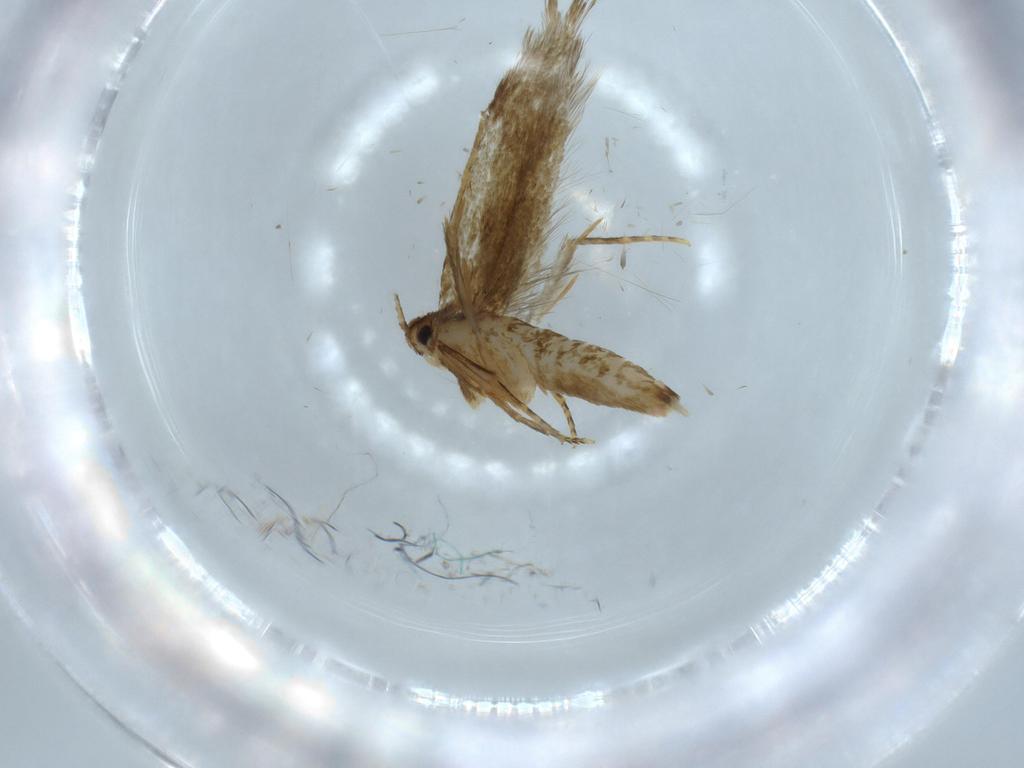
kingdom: Animalia
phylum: Arthropoda
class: Insecta
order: Lepidoptera
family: Tineidae
